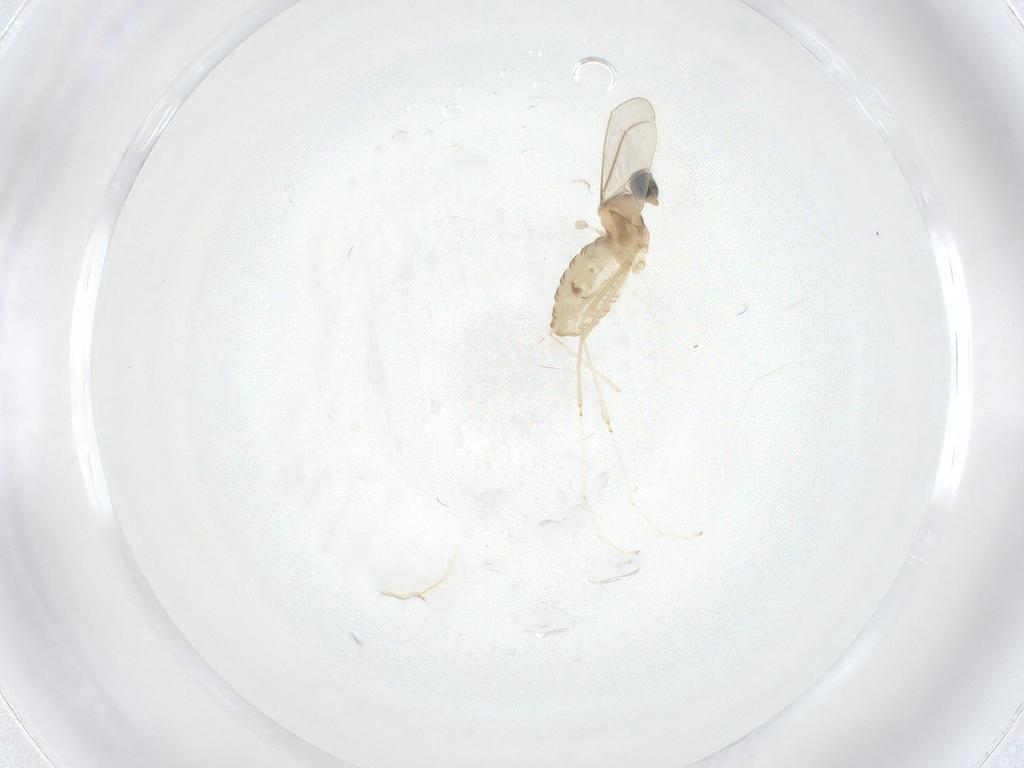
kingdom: Animalia
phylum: Arthropoda
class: Insecta
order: Diptera
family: Cecidomyiidae
